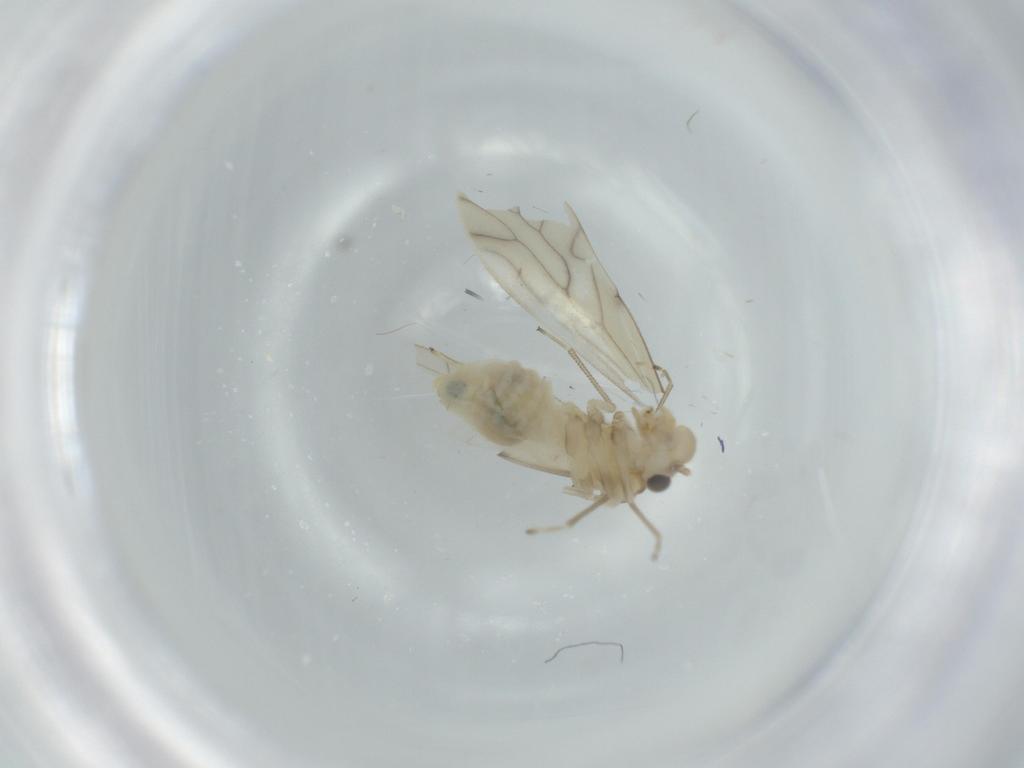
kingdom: Animalia
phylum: Arthropoda
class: Insecta
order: Psocodea
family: Caeciliusidae
